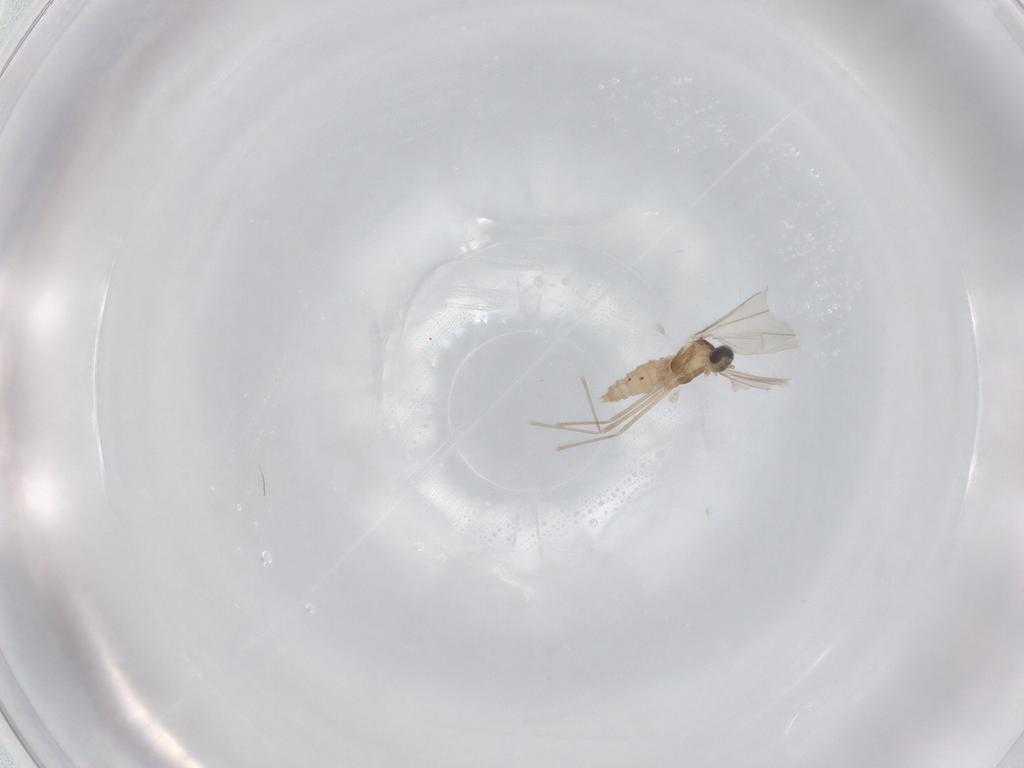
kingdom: Animalia
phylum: Arthropoda
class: Insecta
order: Diptera
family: Cecidomyiidae
